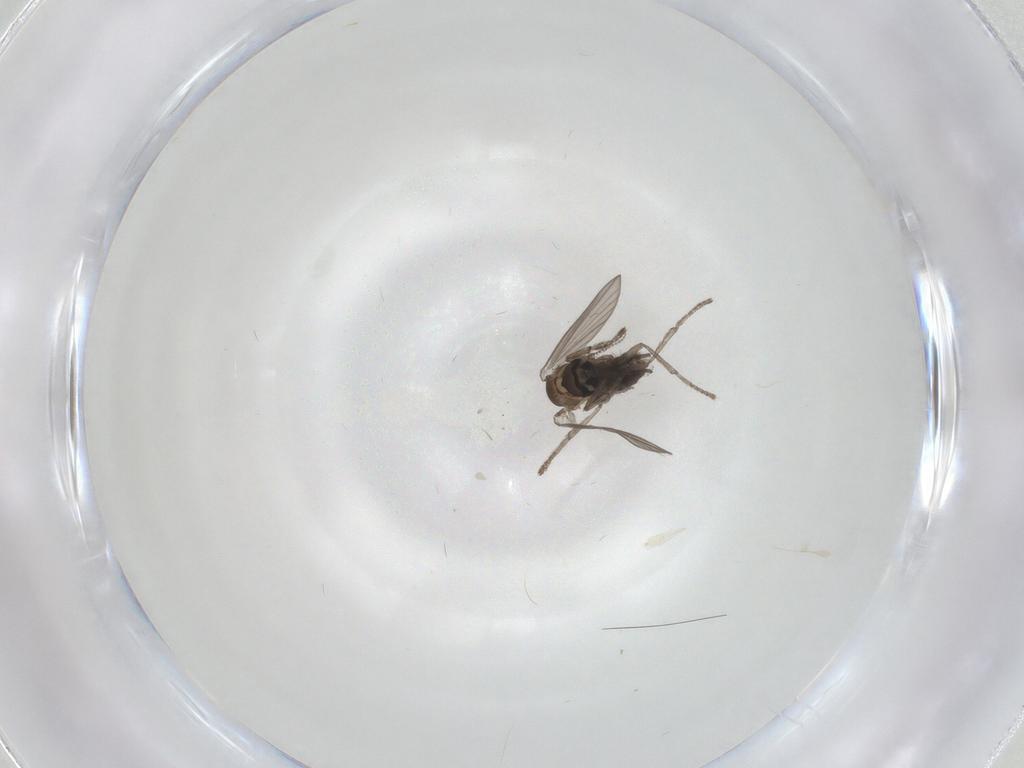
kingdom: Animalia
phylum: Arthropoda
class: Insecta
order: Diptera
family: Psychodidae
